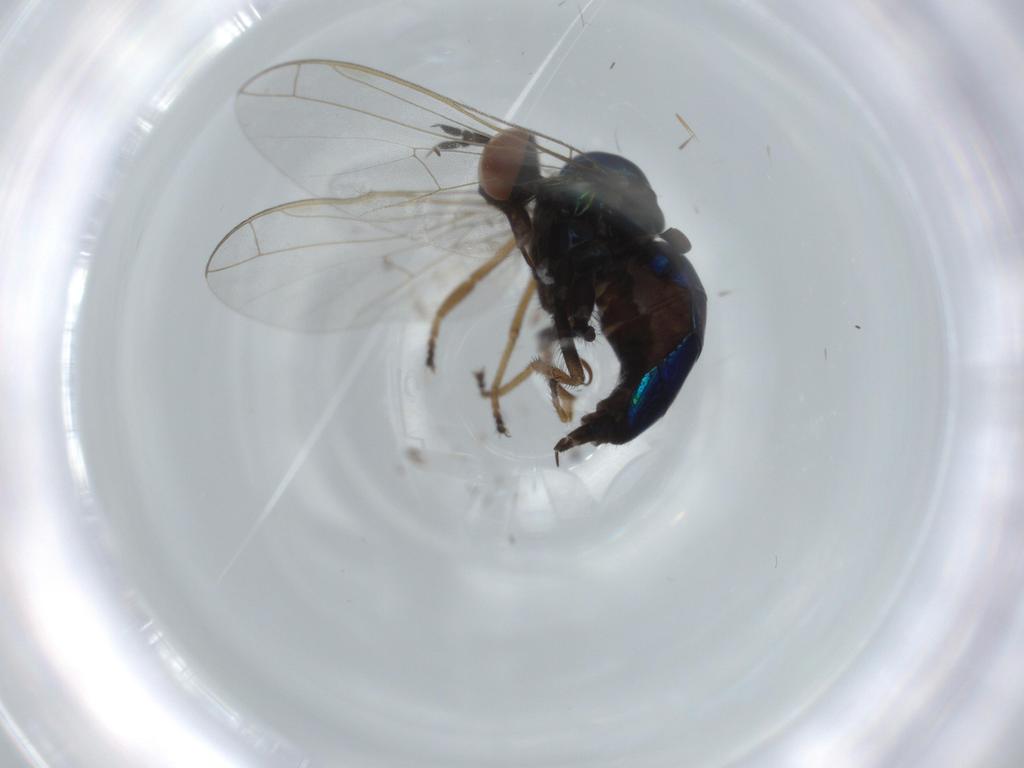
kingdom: Animalia
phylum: Arthropoda
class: Insecta
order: Diptera
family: Empididae
